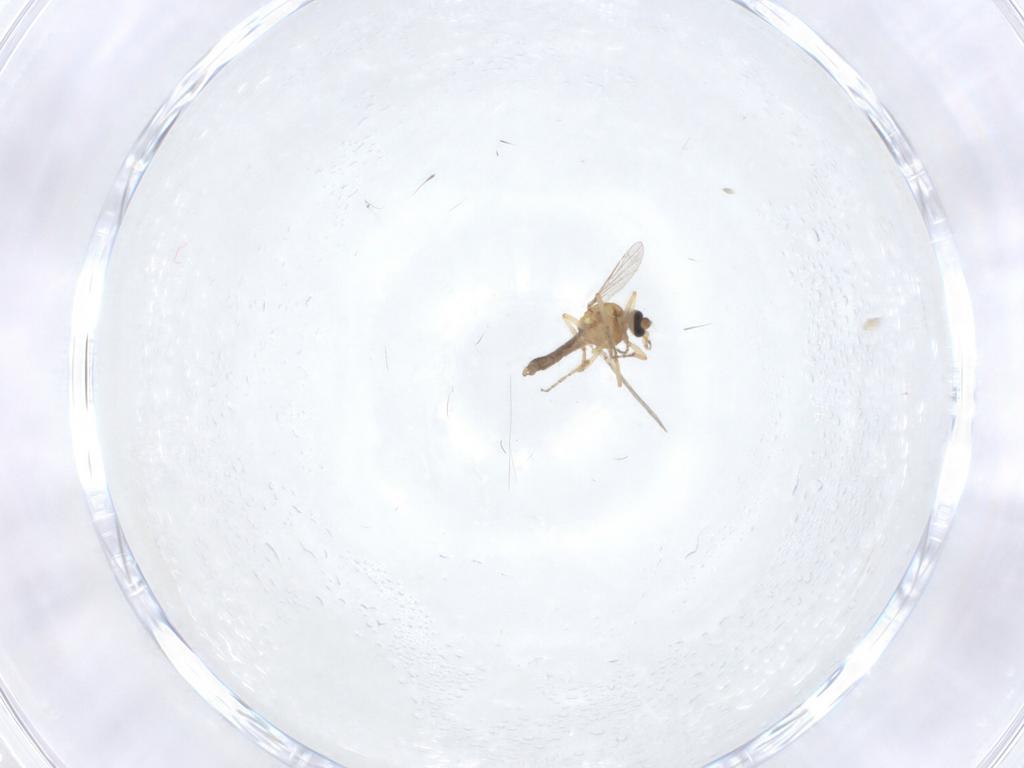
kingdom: Animalia
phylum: Arthropoda
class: Insecta
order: Diptera
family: Ceratopogonidae
